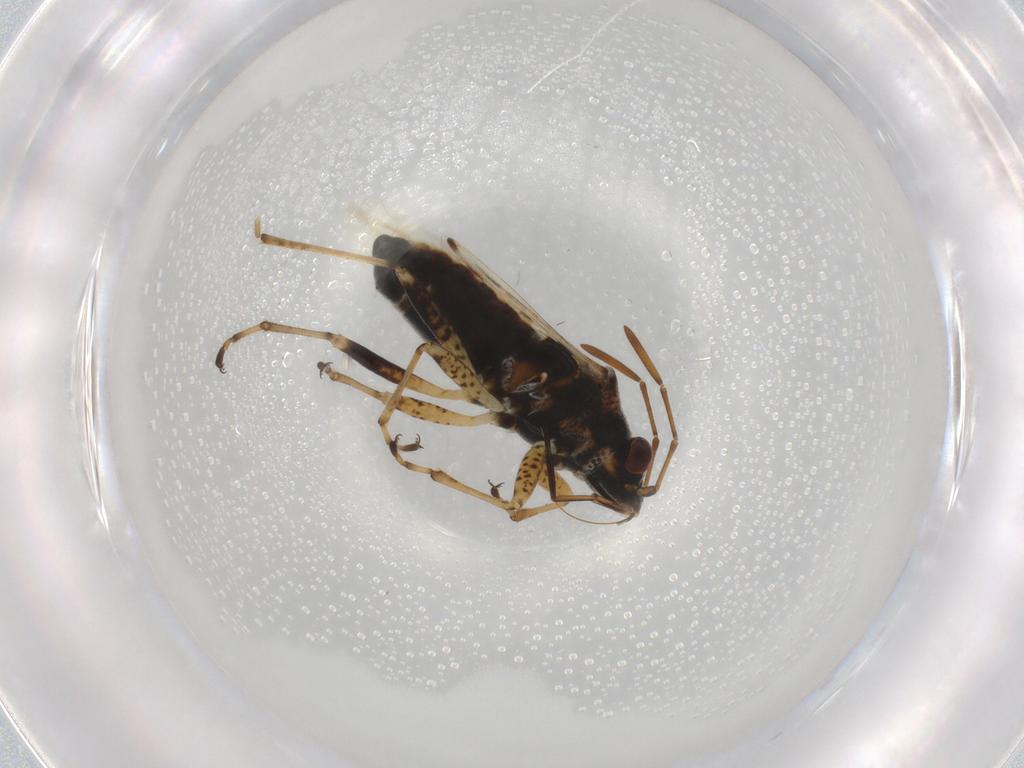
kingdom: Animalia
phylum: Arthropoda
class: Insecta
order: Hemiptera
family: Lygaeidae
